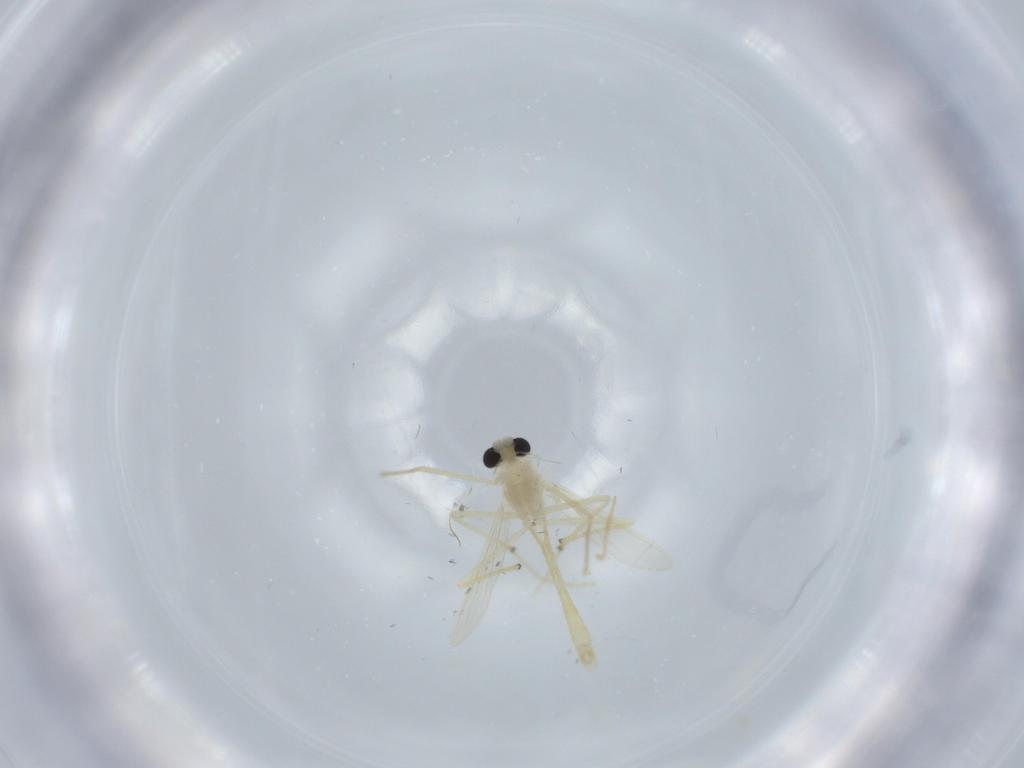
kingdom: Animalia
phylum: Arthropoda
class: Insecta
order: Diptera
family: Chironomidae
